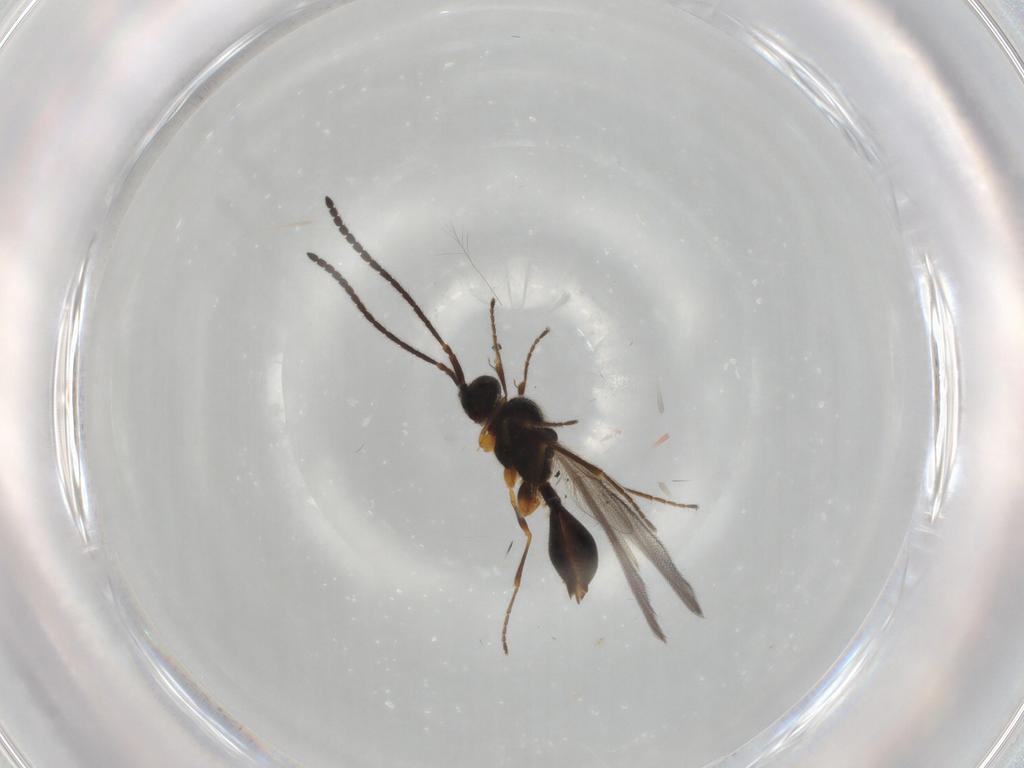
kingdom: Animalia
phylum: Arthropoda
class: Insecta
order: Hymenoptera
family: Diapriidae
